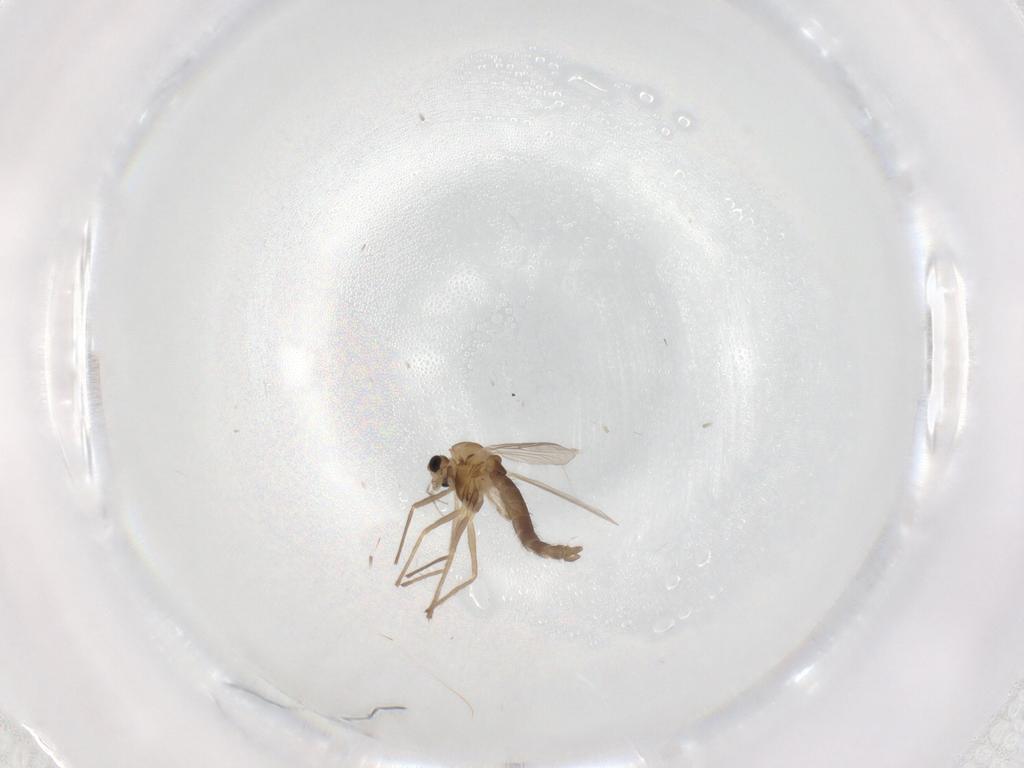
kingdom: Animalia
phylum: Arthropoda
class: Insecta
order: Diptera
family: Chironomidae
